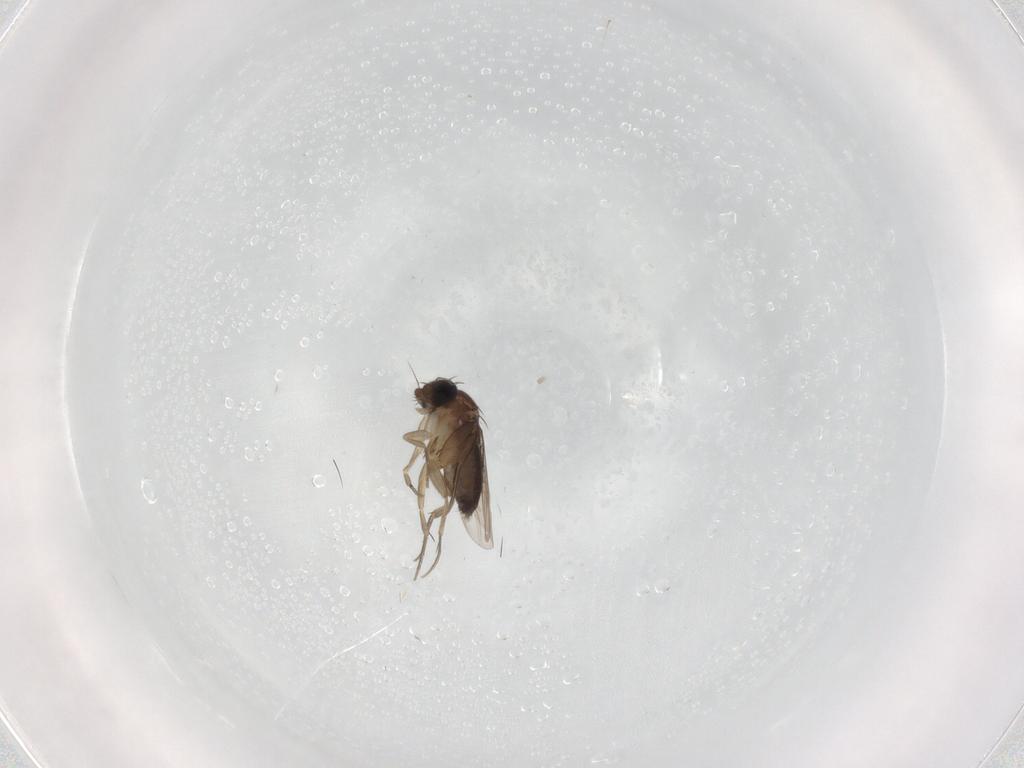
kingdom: Animalia
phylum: Arthropoda
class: Insecta
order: Diptera
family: Phoridae
